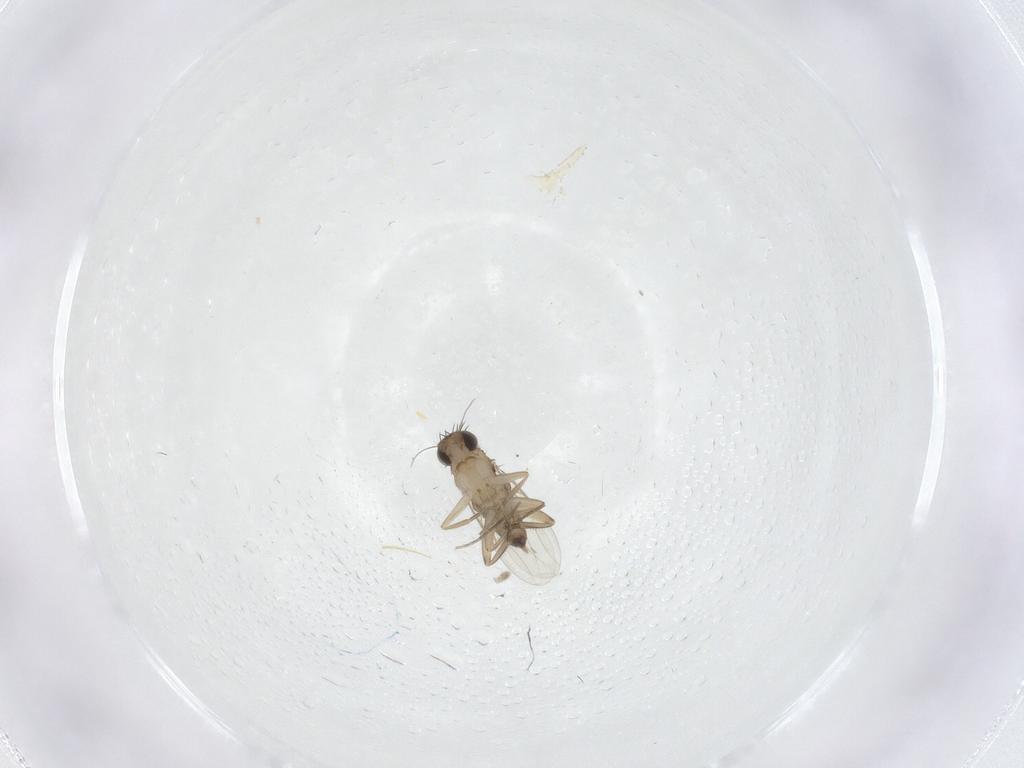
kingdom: Animalia
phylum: Arthropoda
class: Insecta
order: Diptera
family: Phoridae
